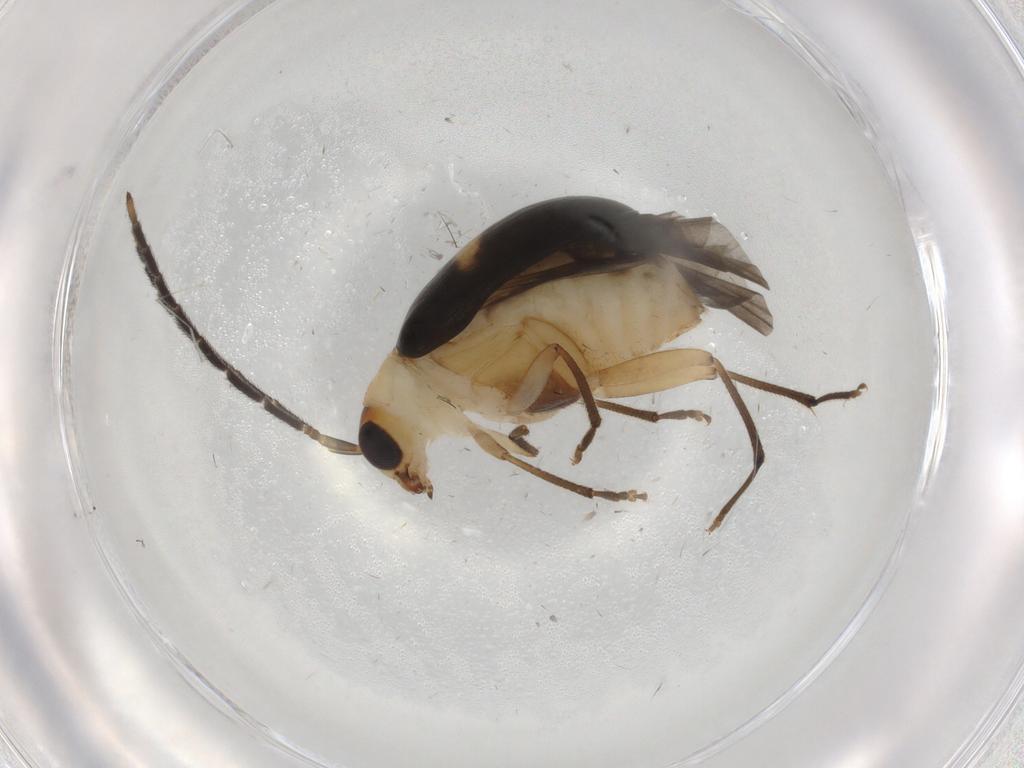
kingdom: Animalia
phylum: Arthropoda
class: Insecta
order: Coleoptera
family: Chrysomelidae
